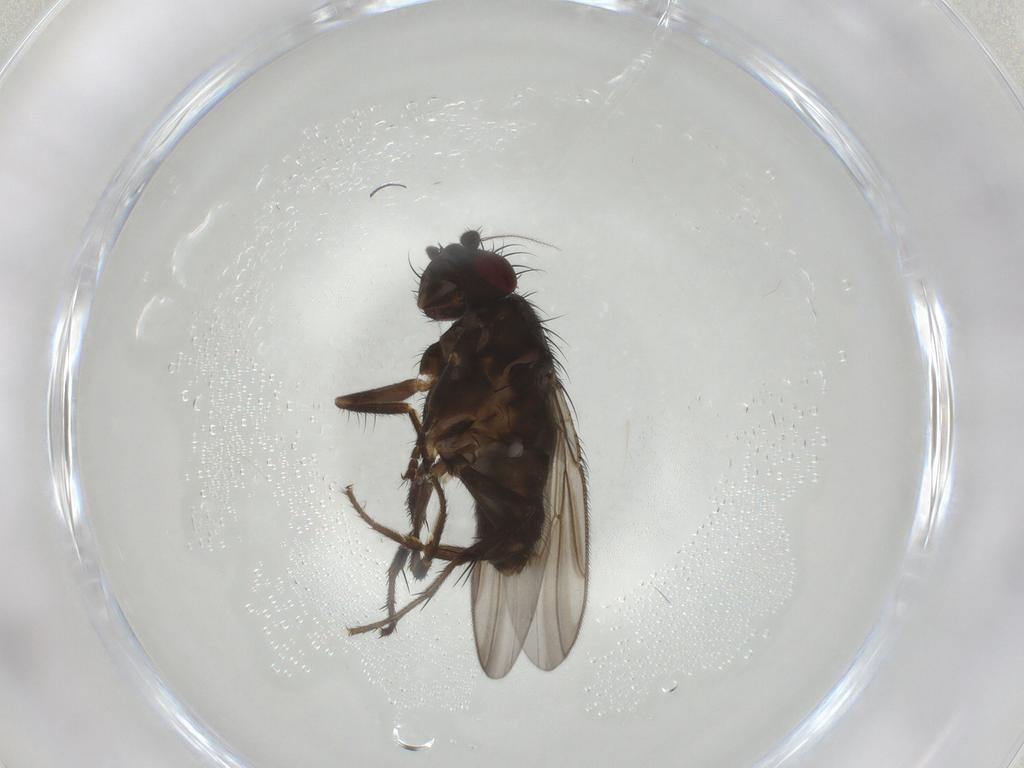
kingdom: Animalia
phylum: Arthropoda
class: Insecta
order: Diptera
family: Sphaeroceridae
